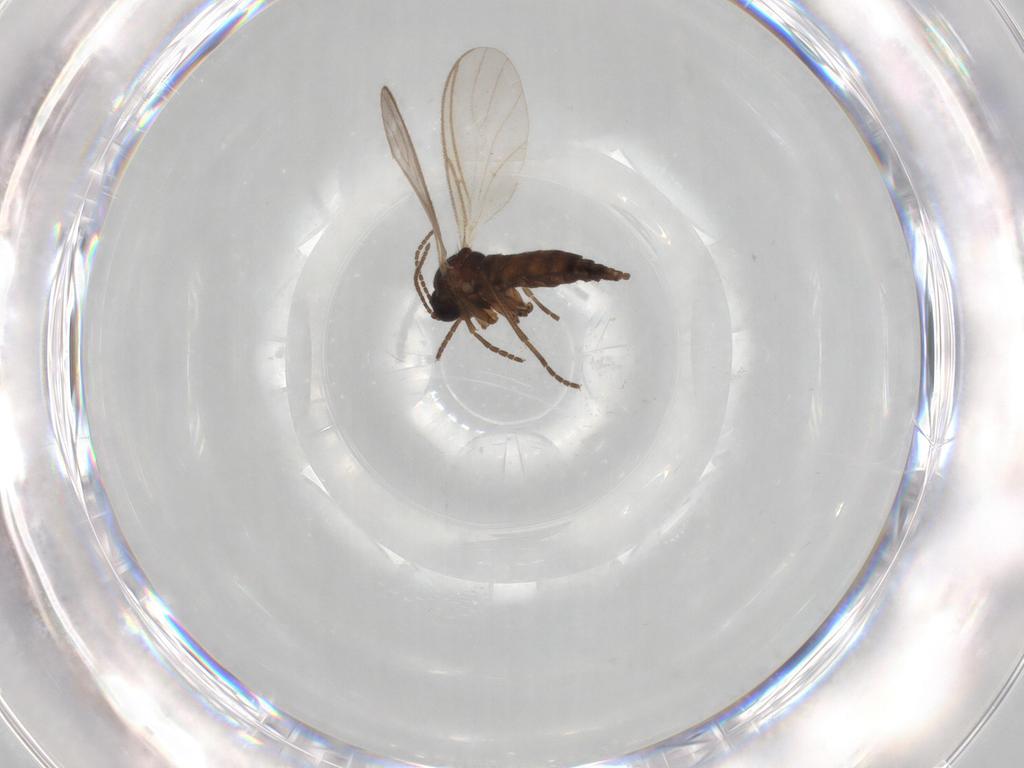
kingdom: Animalia
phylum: Arthropoda
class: Insecta
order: Diptera
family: Sciaridae
